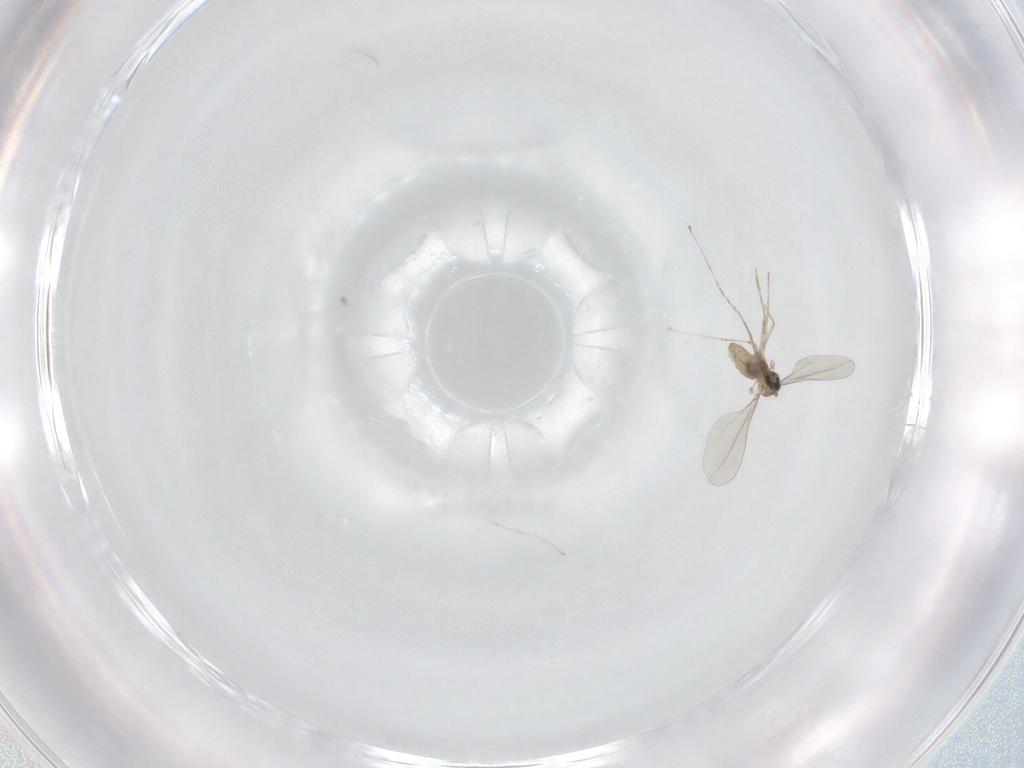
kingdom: Animalia
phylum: Arthropoda
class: Insecta
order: Diptera
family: Cecidomyiidae
